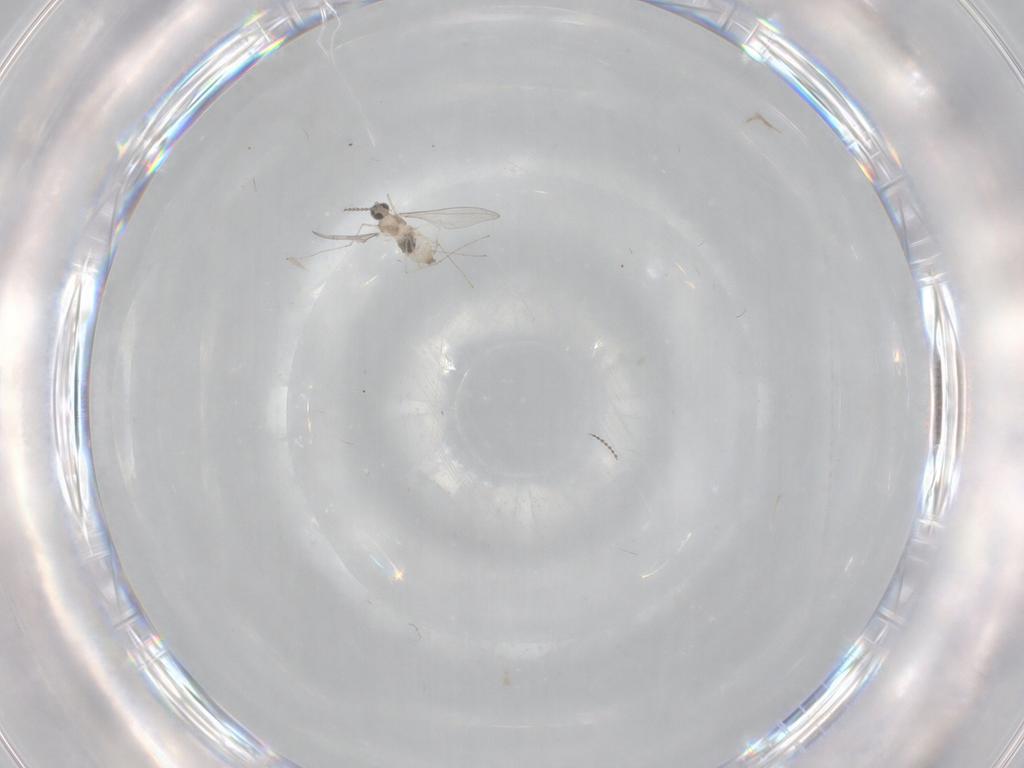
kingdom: Animalia
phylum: Arthropoda
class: Insecta
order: Diptera
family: Cecidomyiidae
